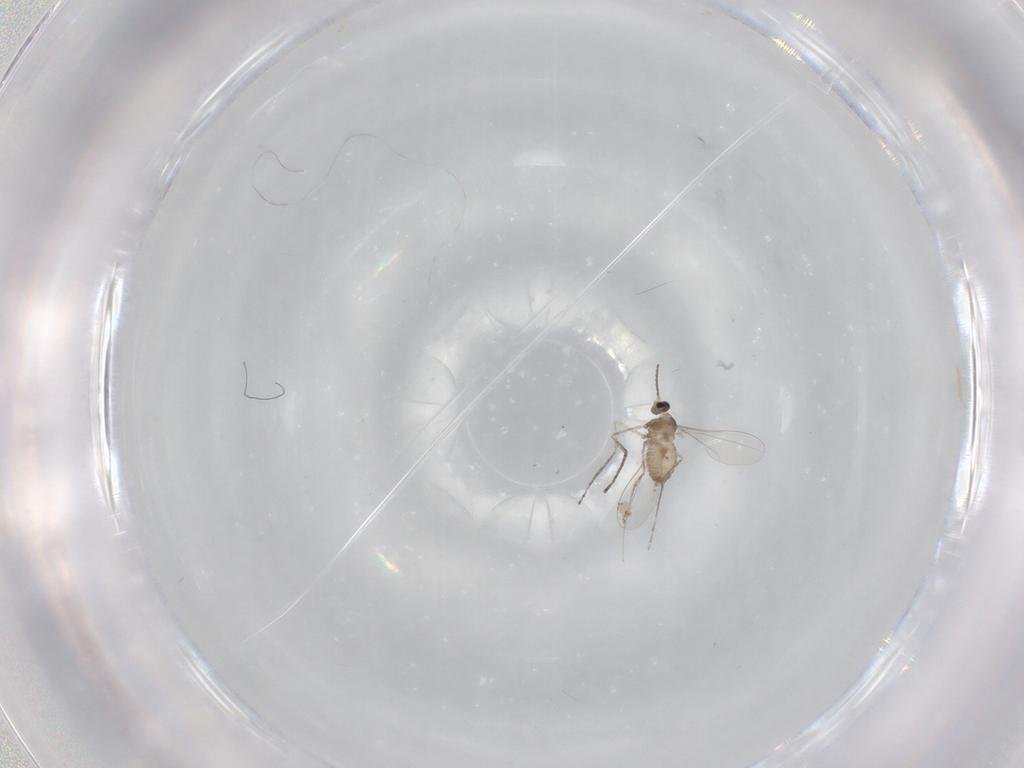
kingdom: Animalia
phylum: Arthropoda
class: Insecta
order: Diptera
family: Cecidomyiidae
